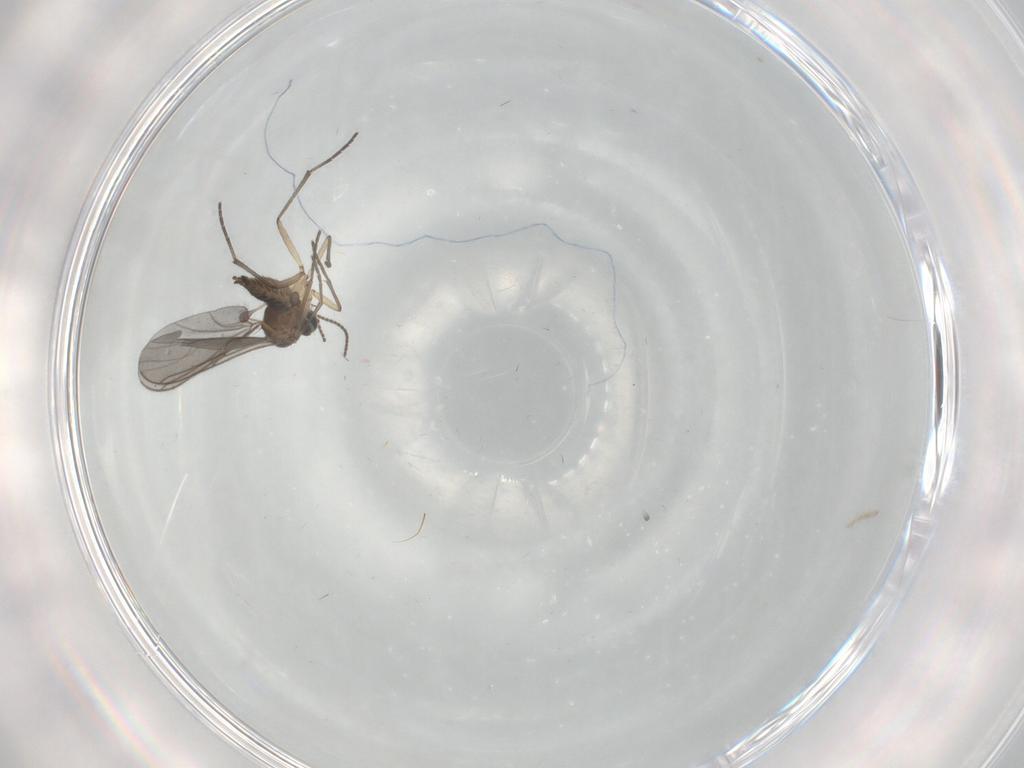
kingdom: Animalia
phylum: Arthropoda
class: Insecta
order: Diptera
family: Sciaridae
